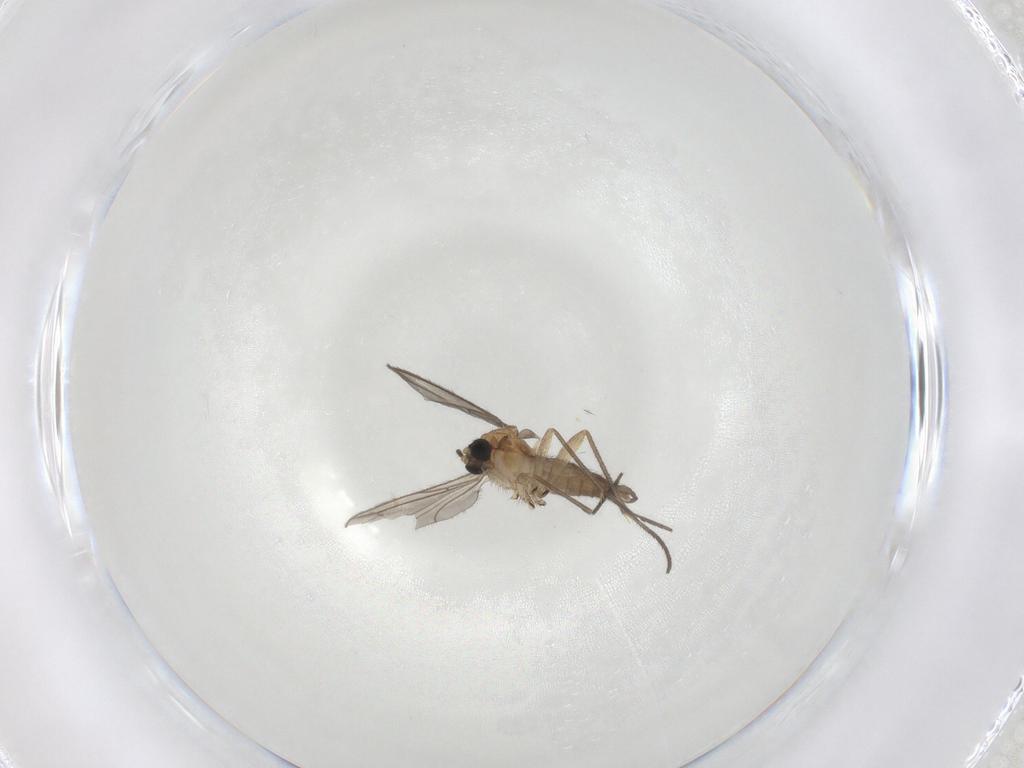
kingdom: Animalia
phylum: Arthropoda
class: Insecta
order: Diptera
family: Sciaridae
